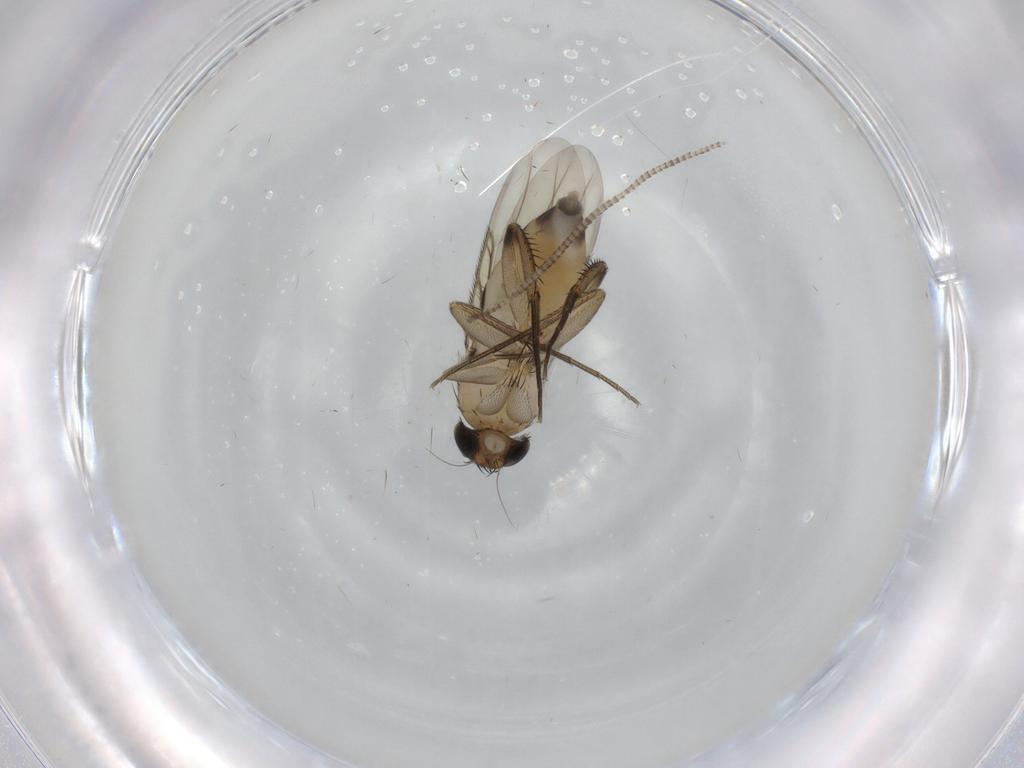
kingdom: Animalia
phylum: Arthropoda
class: Insecta
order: Diptera
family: Phoridae
